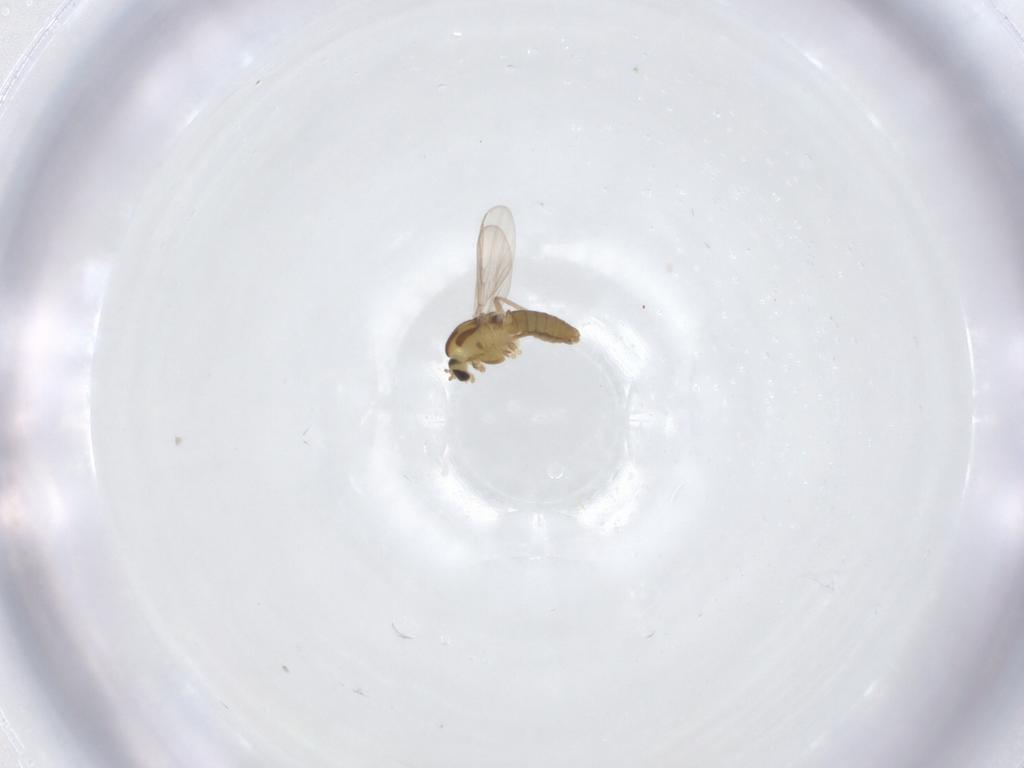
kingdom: Animalia
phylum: Arthropoda
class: Insecta
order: Diptera
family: Chironomidae
